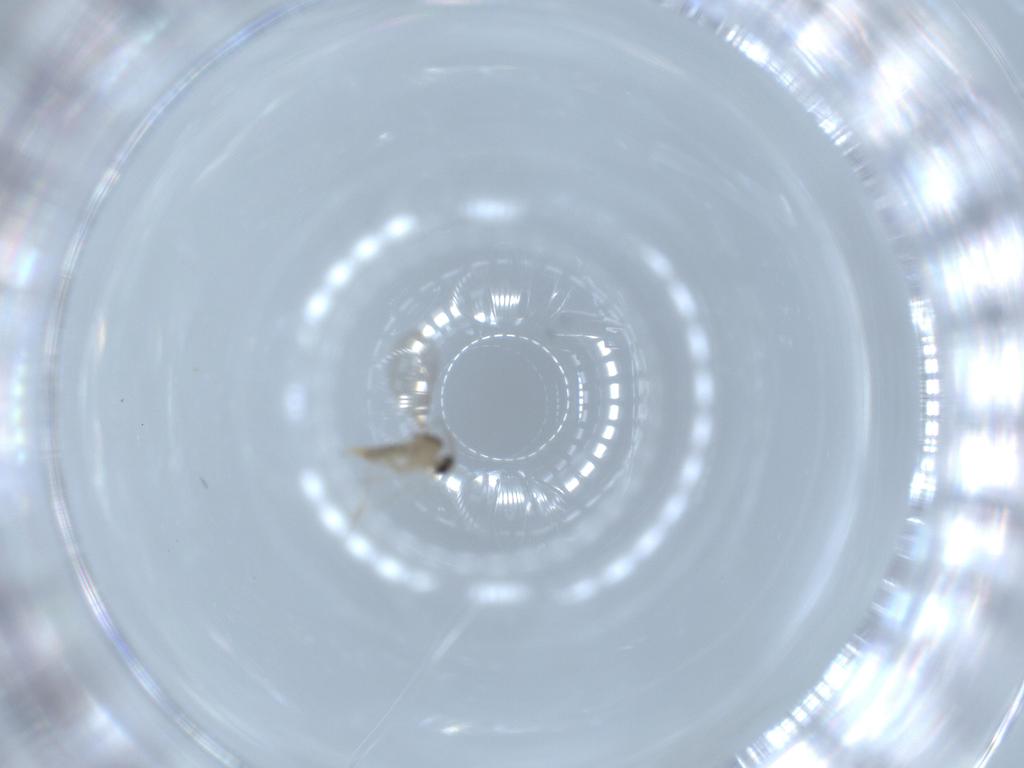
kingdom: Animalia
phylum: Arthropoda
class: Insecta
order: Diptera
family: Cecidomyiidae
